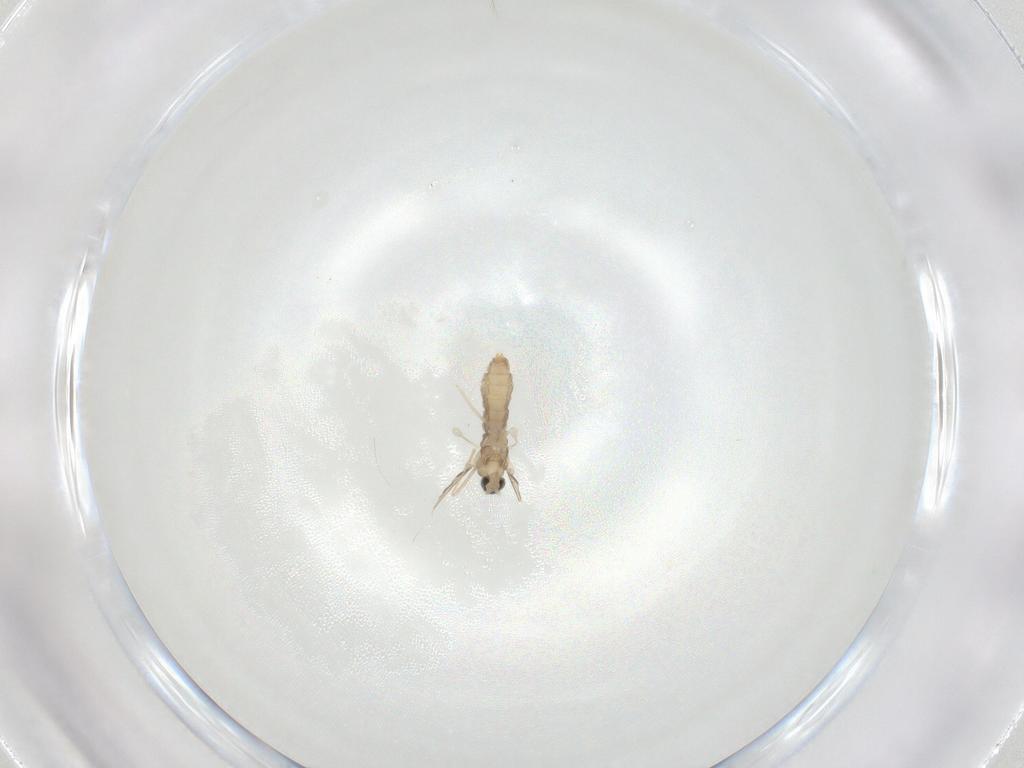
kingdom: Animalia
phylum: Arthropoda
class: Insecta
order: Diptera
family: Cecidomyiidae
